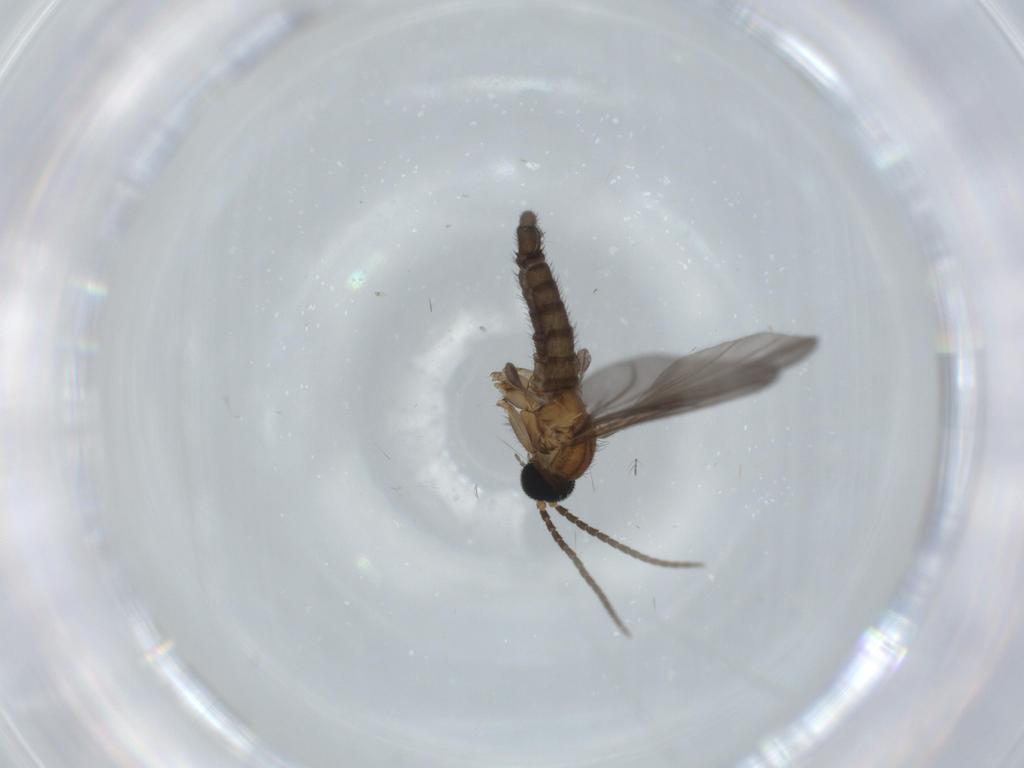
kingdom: Animalia
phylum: Arthropoda
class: Insecta
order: Diptera
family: Sciaridae
